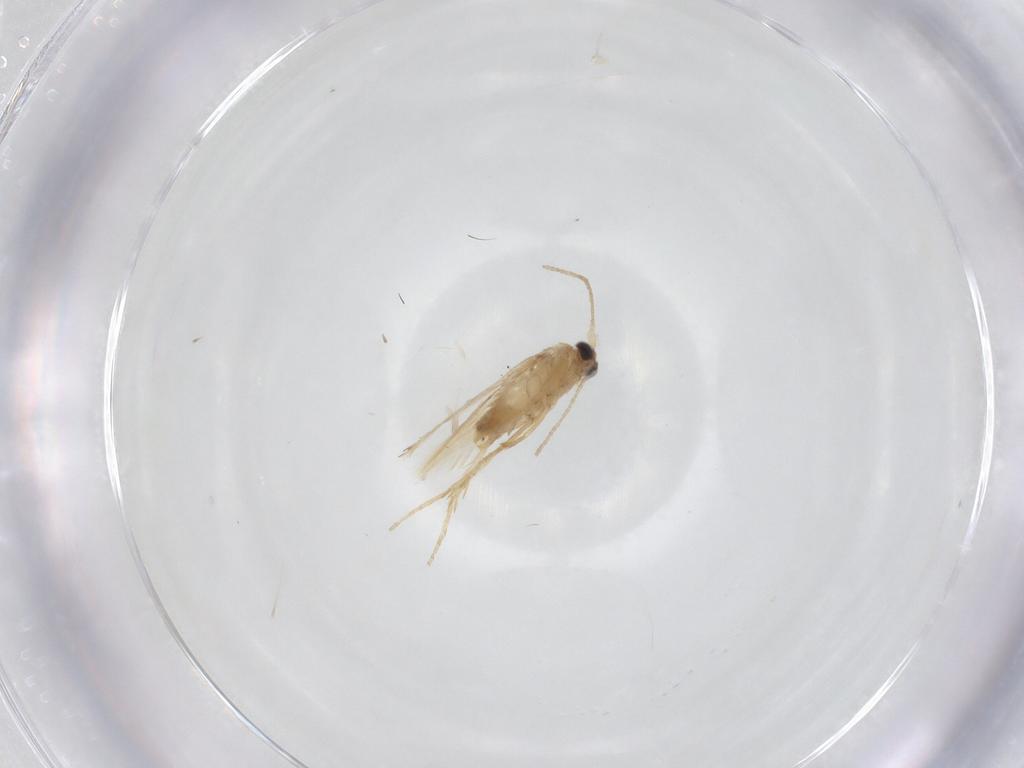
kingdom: Animalia
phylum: Arthropoda
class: Insecta
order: Lepidoptera
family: Nepticulidae
